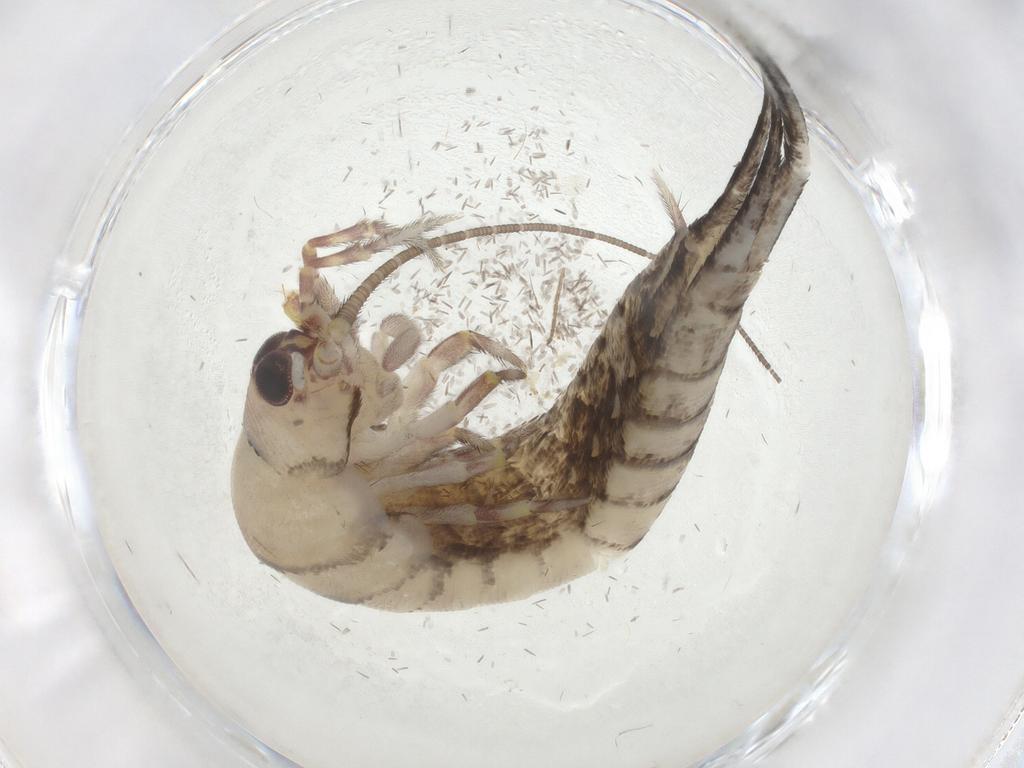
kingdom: Animalia
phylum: Arthropoda
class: Insecta
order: Archaeognatha
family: Machilidae
